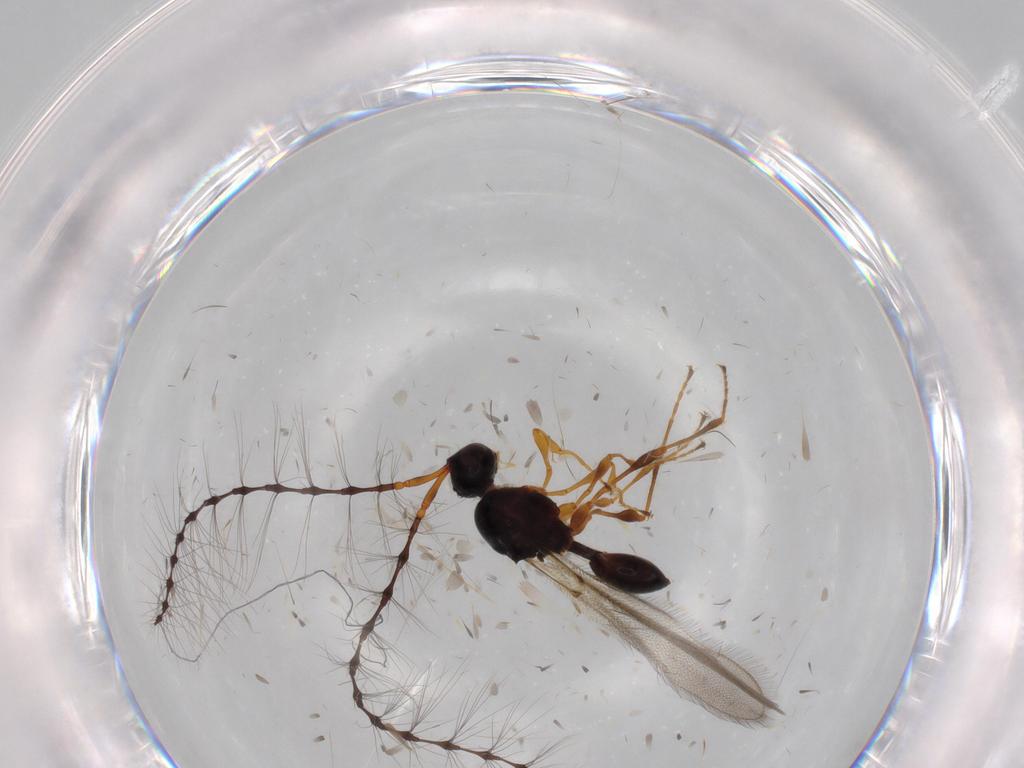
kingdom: Animalia
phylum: Arthropoda
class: Insecta
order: Hymenoptera
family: Diapriidae
